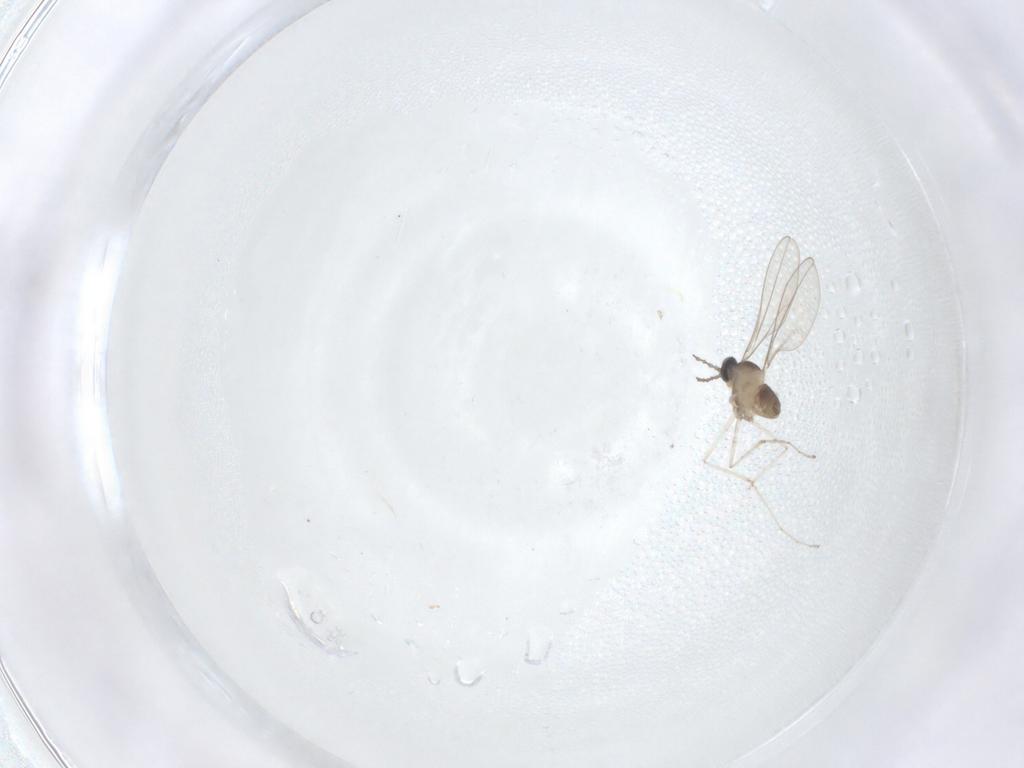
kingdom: Animalia
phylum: Arthropoda
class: Insecta
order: Diptera
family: Cecidomyiidae
